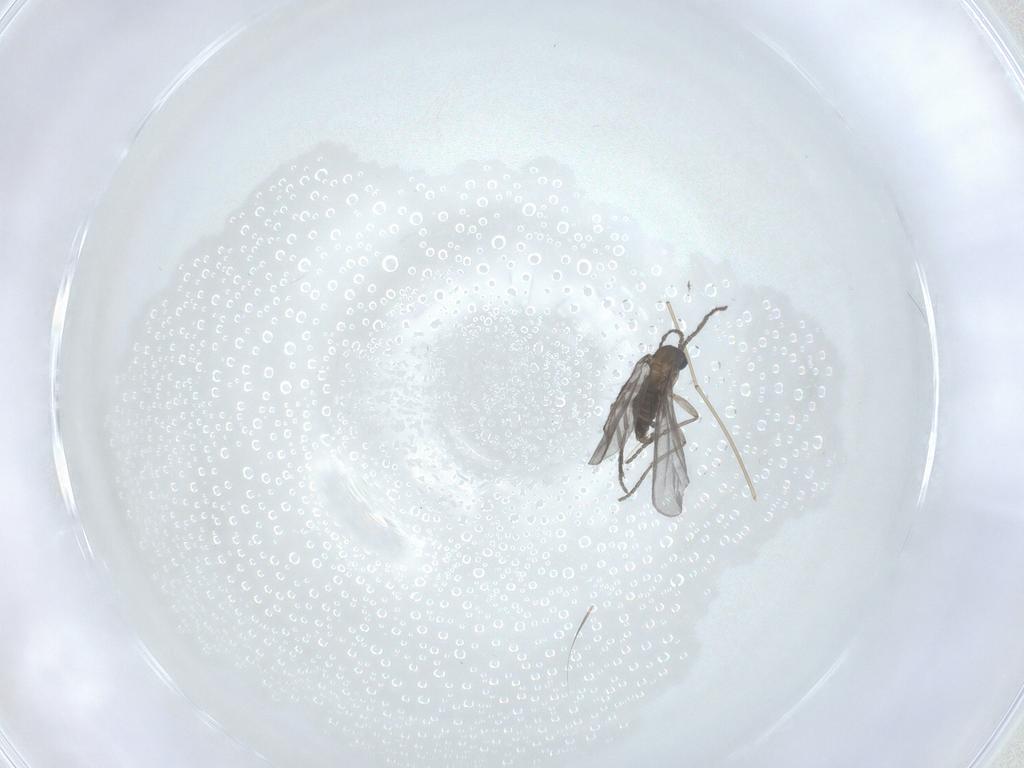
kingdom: Animalia
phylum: Arthropoda
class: Insecta
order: Diptera
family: Sciaridae
